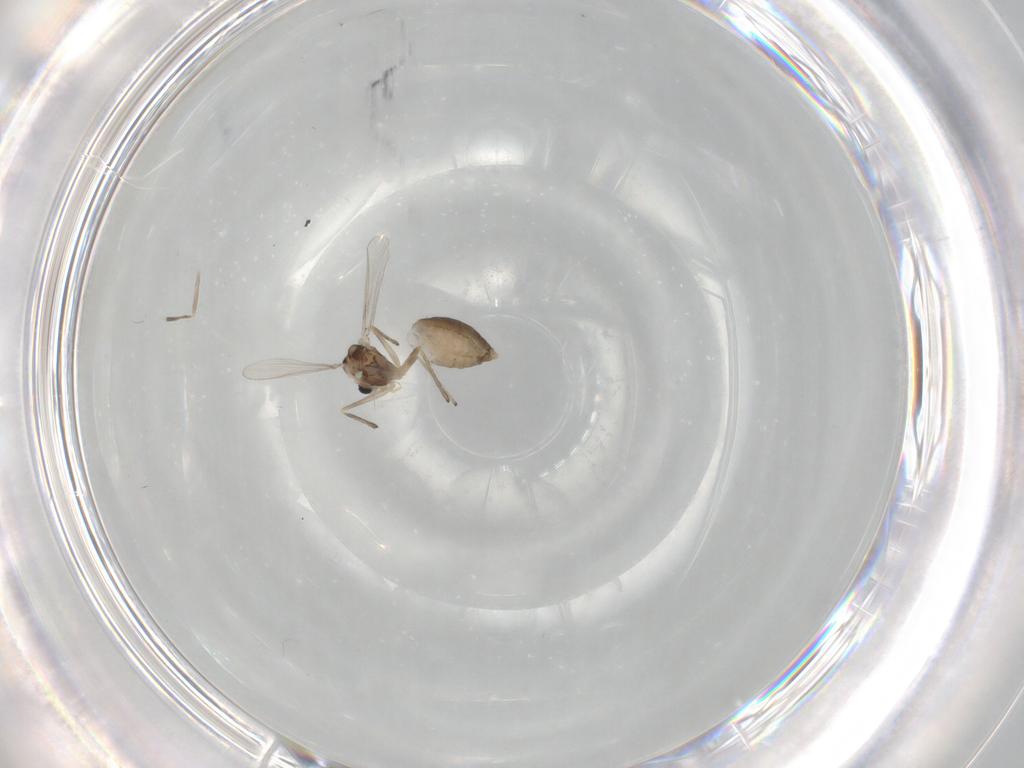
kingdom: Animalia
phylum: Arthropoda
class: Insecta
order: Diptera
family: Chironomidae
